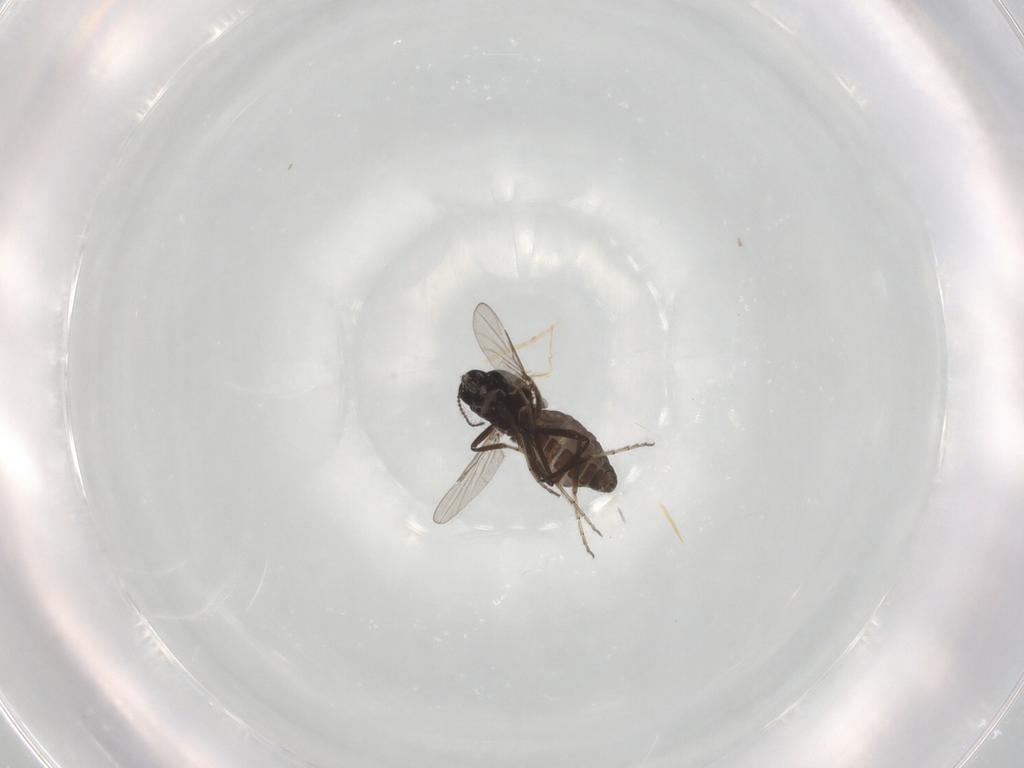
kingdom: Animalia
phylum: Arthropoda
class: Insecta
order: Diptera
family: Ceratopogonidae
